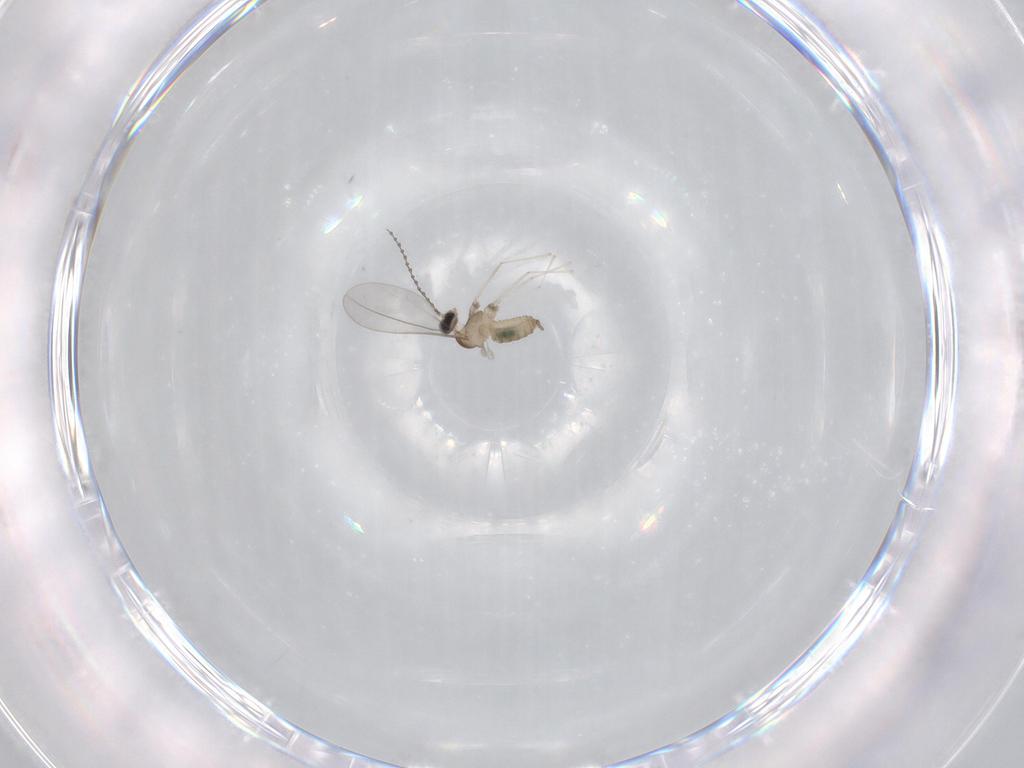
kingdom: Animalia
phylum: Arthropoda
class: Insecta
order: Diptera
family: Cecidomyiidae
